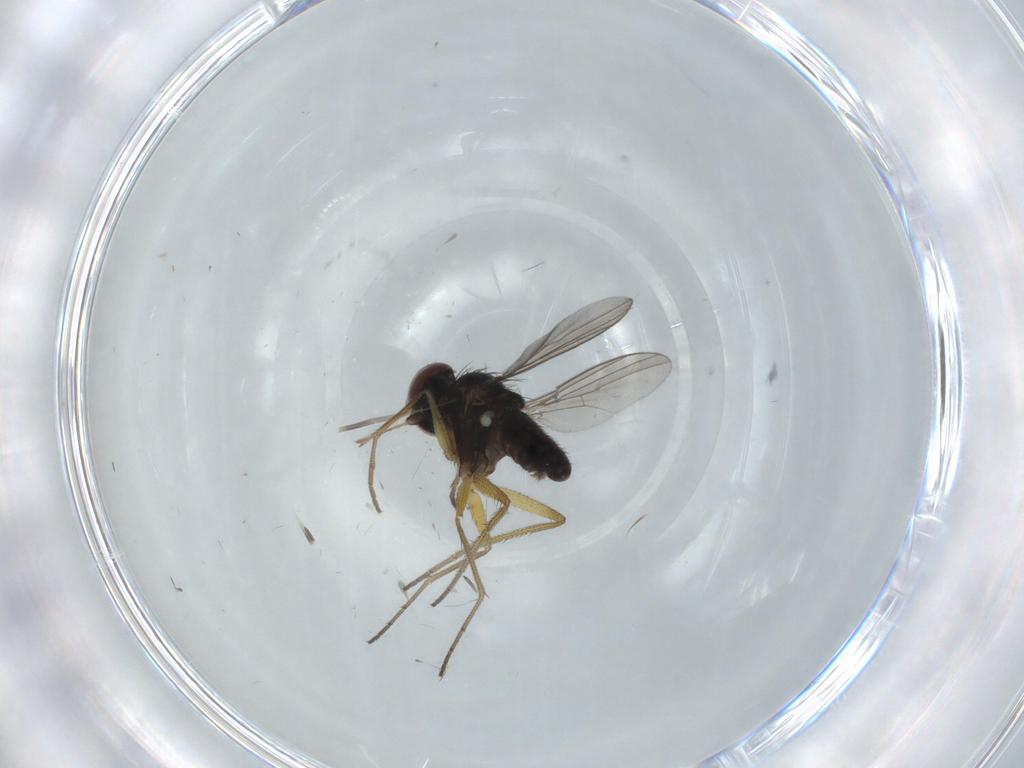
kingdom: Animalia
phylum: Arthropoda
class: Insecta
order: Diptera
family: Dolichopodidae
